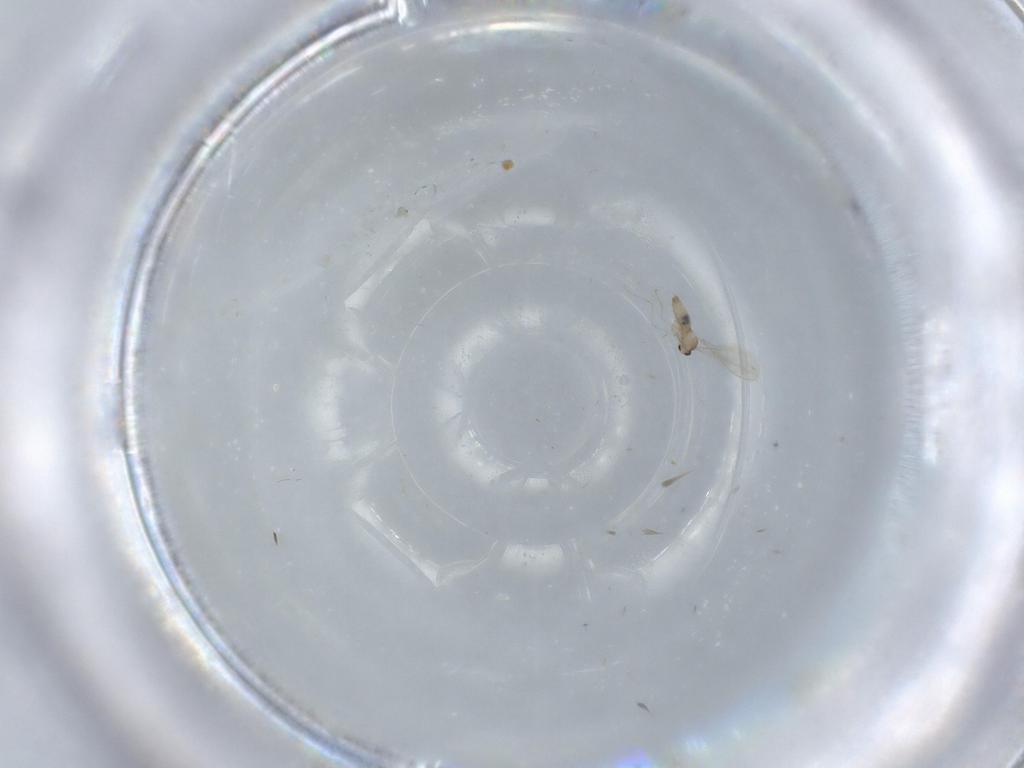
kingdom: Animalia
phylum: Arthropoda
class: Insecta
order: Diptera
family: Cecidomyiidae
